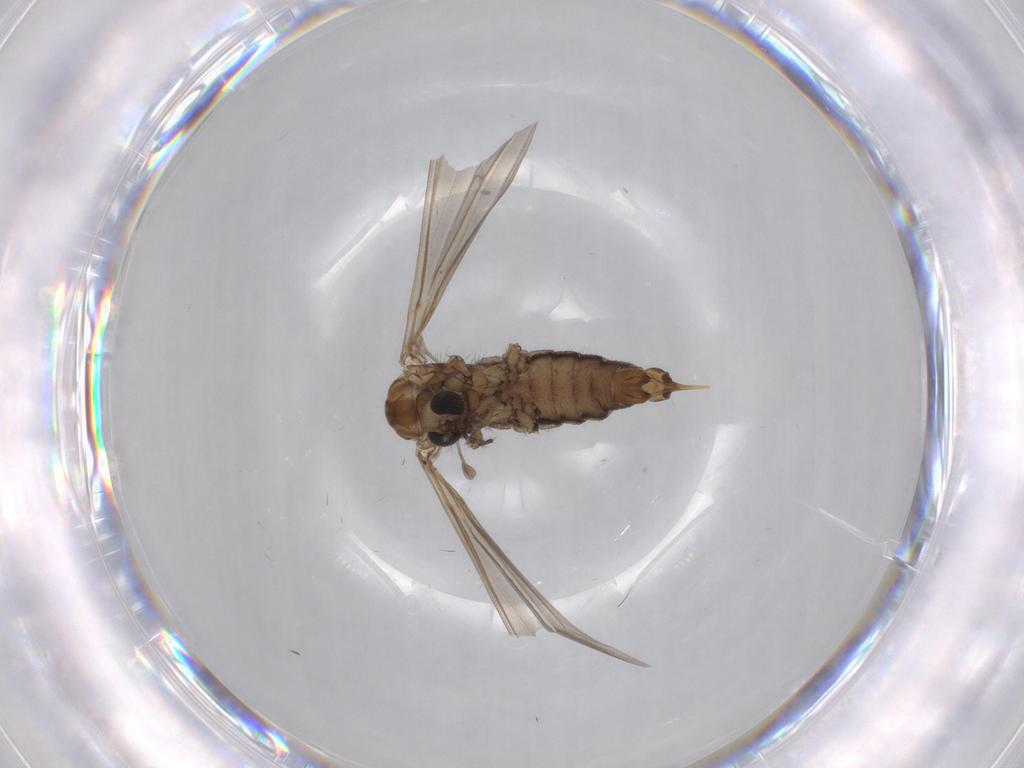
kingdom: Animalia
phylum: Arthropoda
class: Insecta
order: Diptera
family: Limoniidae
